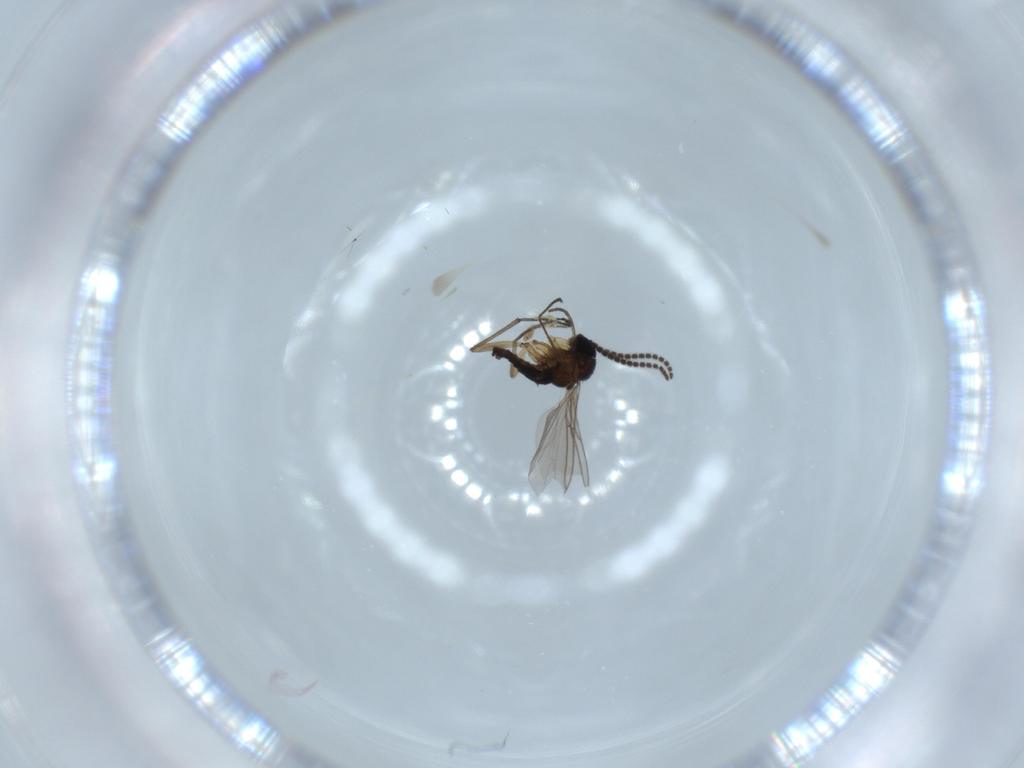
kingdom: Animalia
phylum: Arthropoda
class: Insecta
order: Diptera
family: Sciaridae
